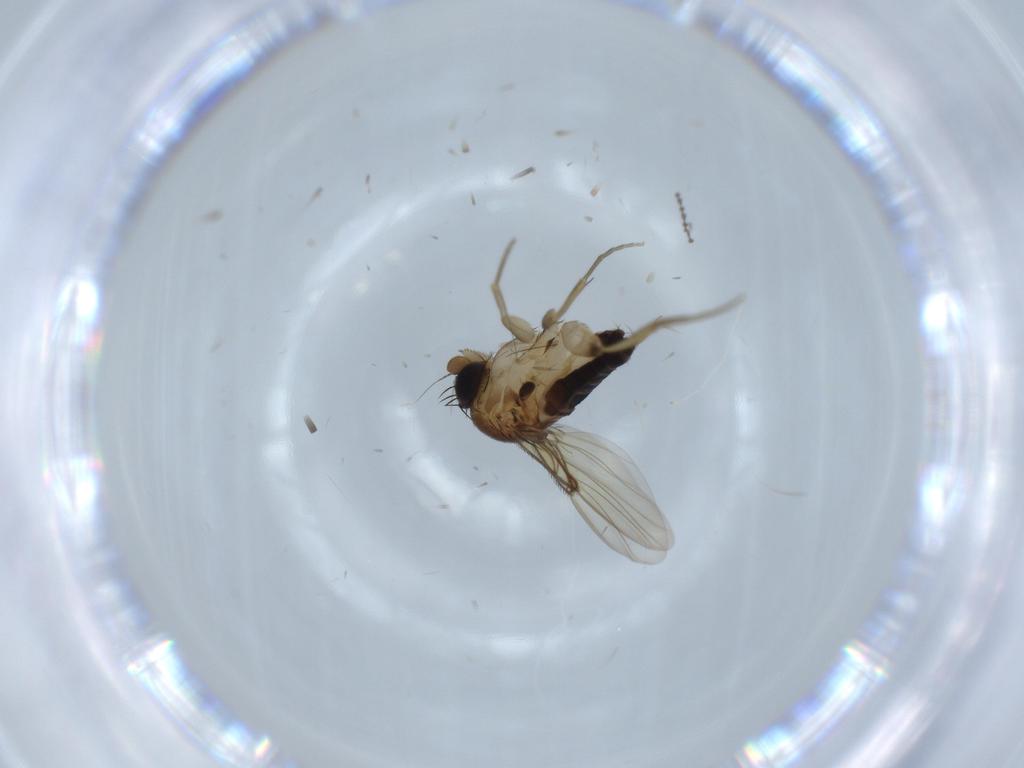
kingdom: Animalia
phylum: Arthropoda
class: Insecta
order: Diptera
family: Phoridae
